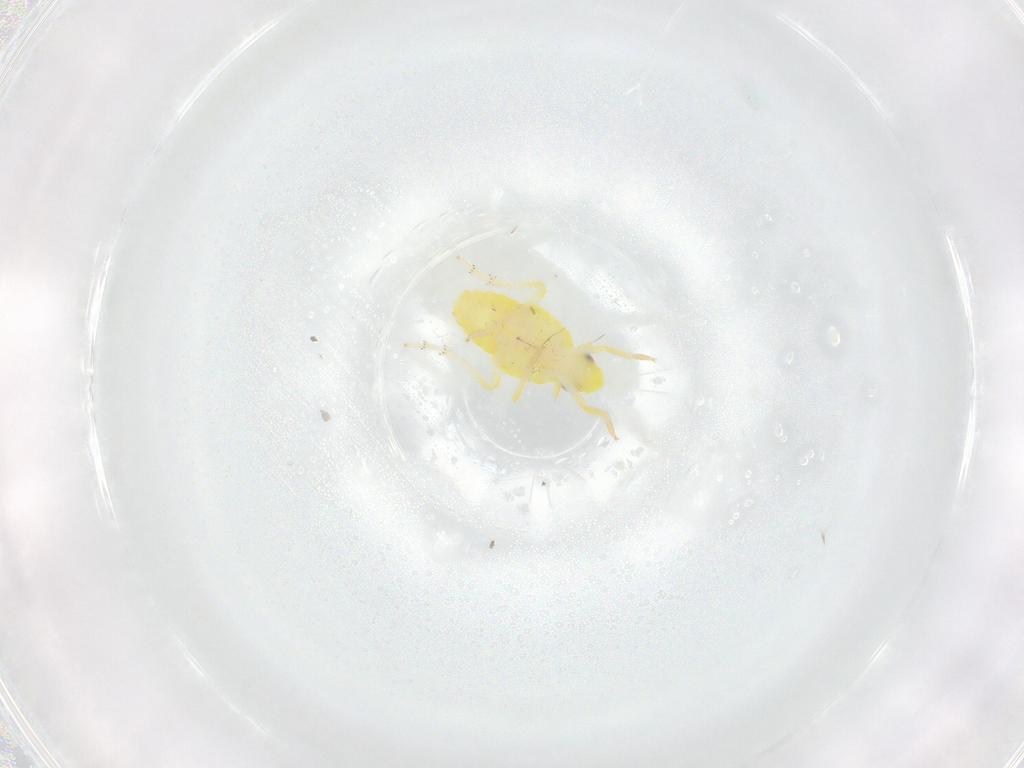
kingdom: Animalia
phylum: Arthropoda
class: Insecta
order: Hemiptera
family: Fulgoroidea_incertae_sedis
